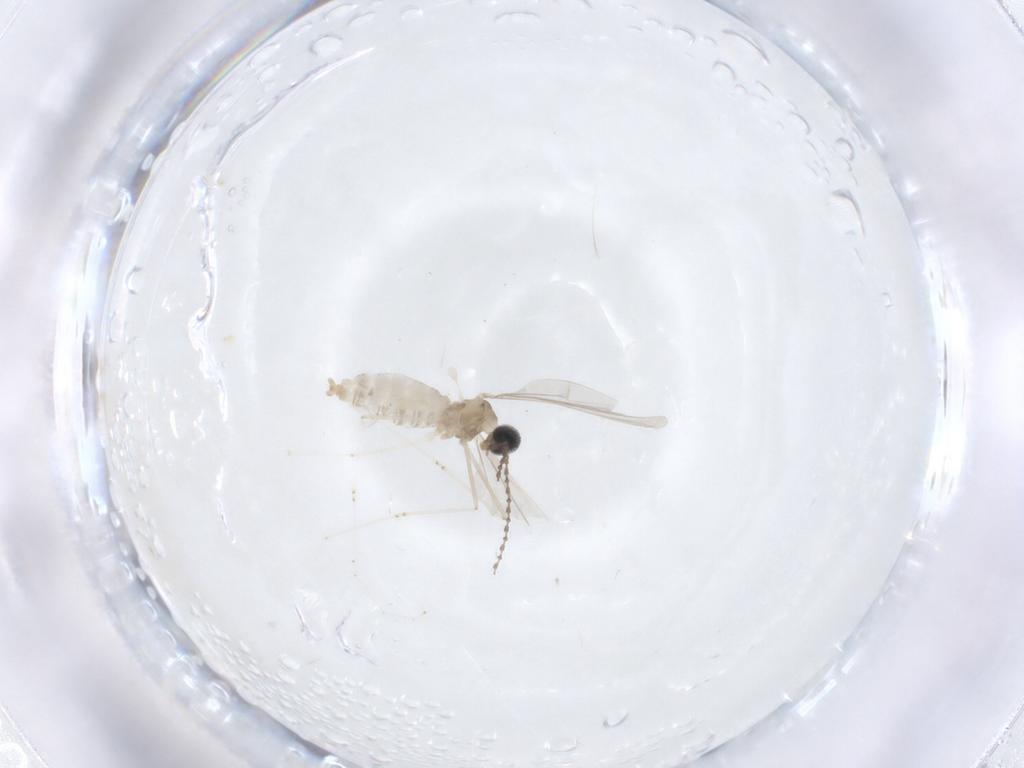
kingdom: Animalia
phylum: Arthropoda
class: Insecta
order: Diptera
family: Cecidomyiidae
